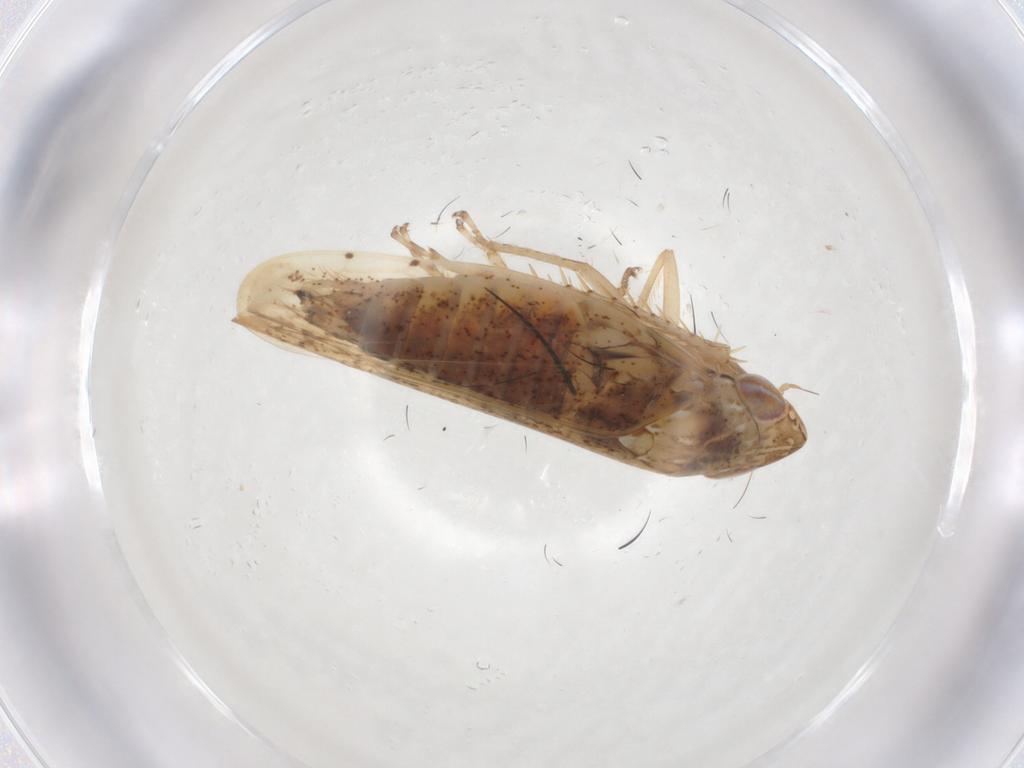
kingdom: Animalia
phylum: Arthropoda
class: Insecta
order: Hemiptera
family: Cicadellidae
